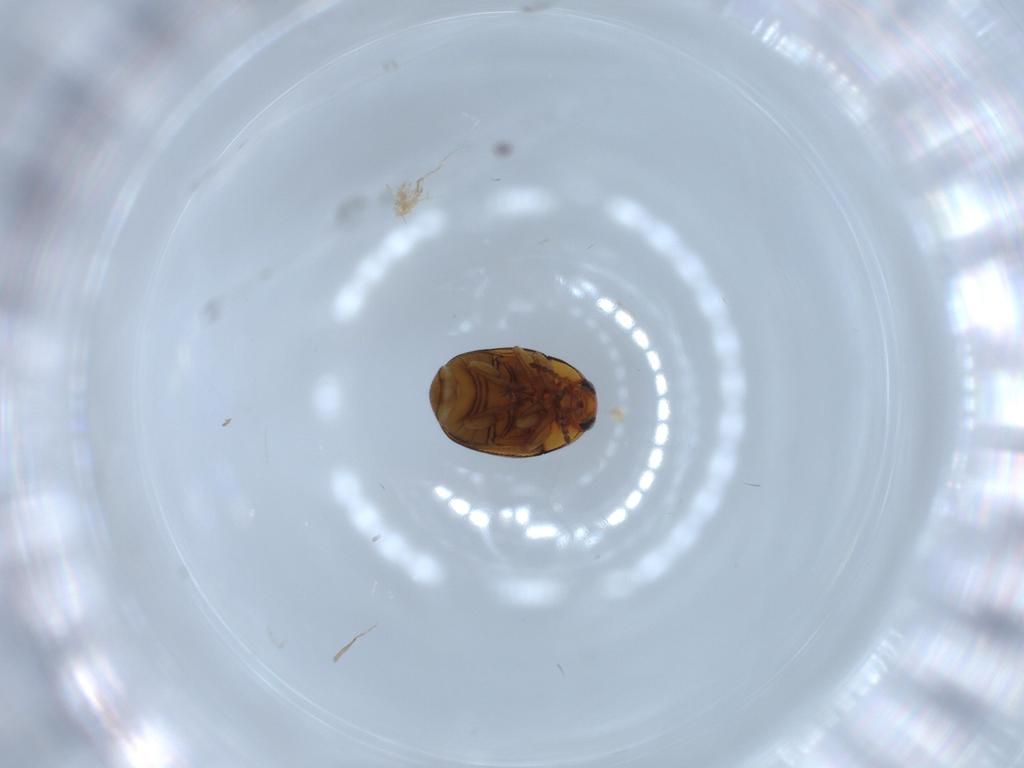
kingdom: Animalia
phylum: Arthropoda
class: Insecta
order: Coleoptera
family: Chrysomelidae
